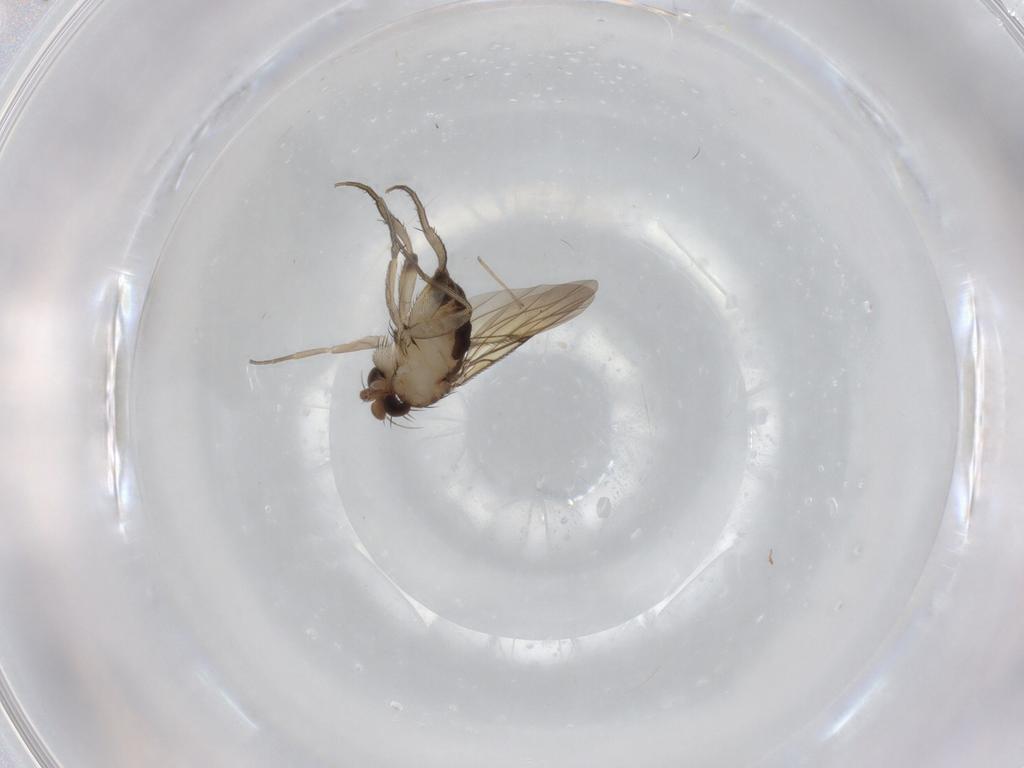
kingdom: Animalia
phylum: Arthropoda
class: Insecta
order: Diptera
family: Phoridae
